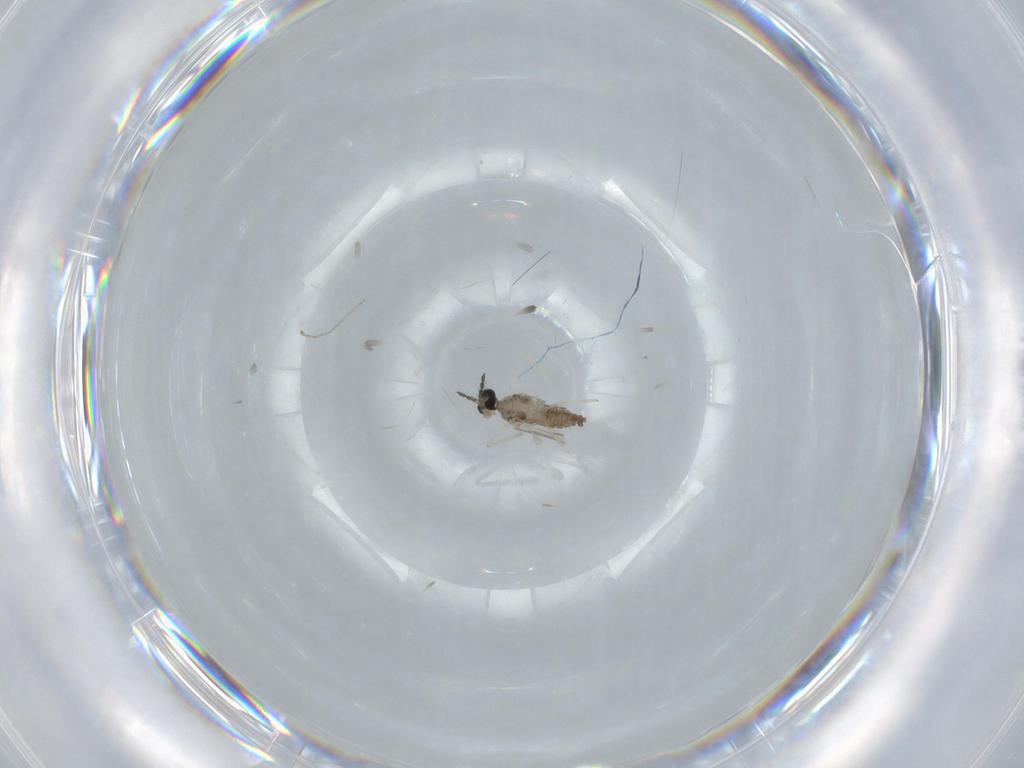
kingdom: Animalia
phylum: Arthropoda
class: Insecta
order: Diptera
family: Cecidomyiidae
